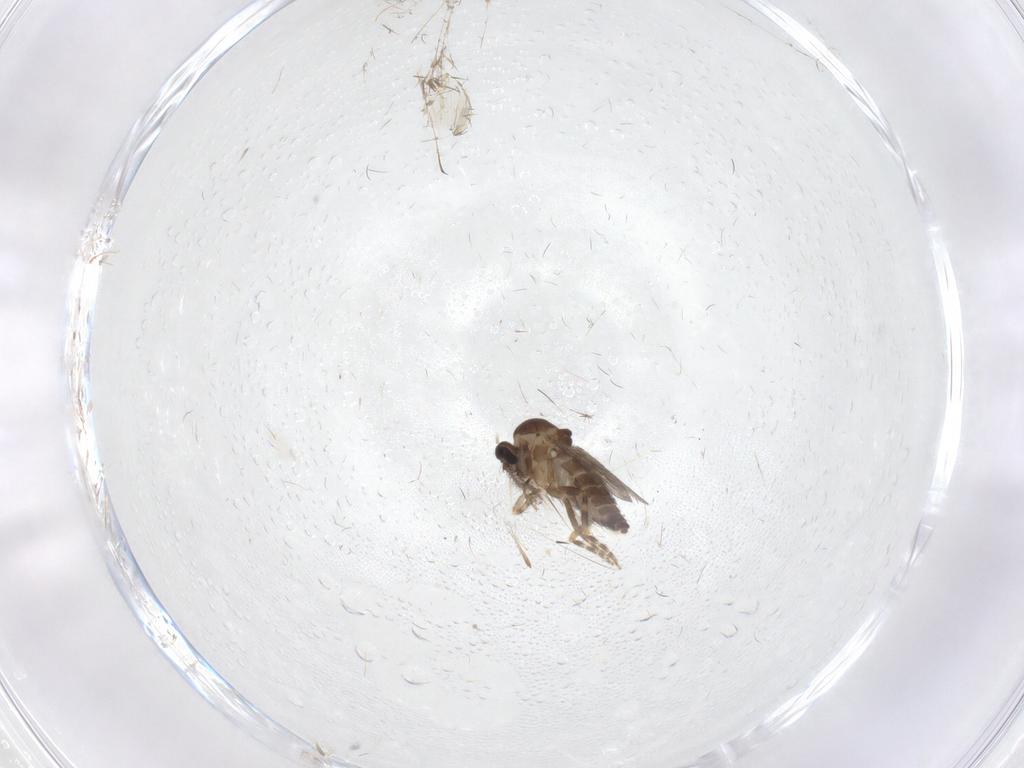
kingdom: Animalia
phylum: Arthropoda
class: Insecta
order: Diptera
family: Ceratopogonidae
